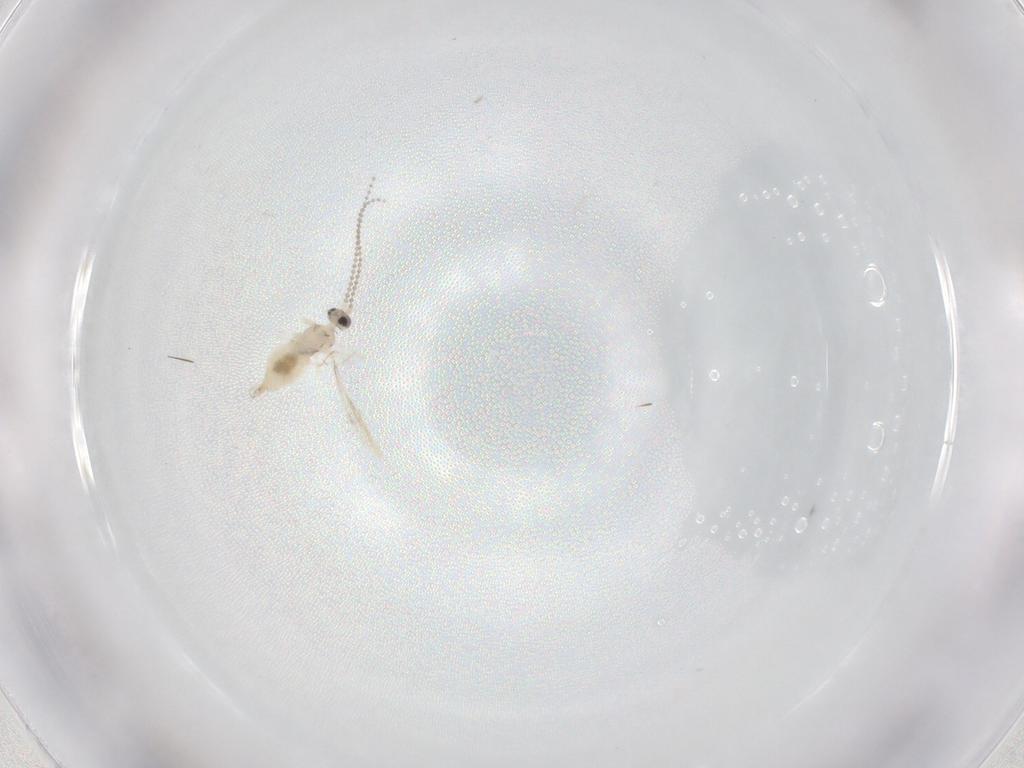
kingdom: Animalia
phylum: Arthropoda
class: Insecta
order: Diptera
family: Cecidomyiidae
